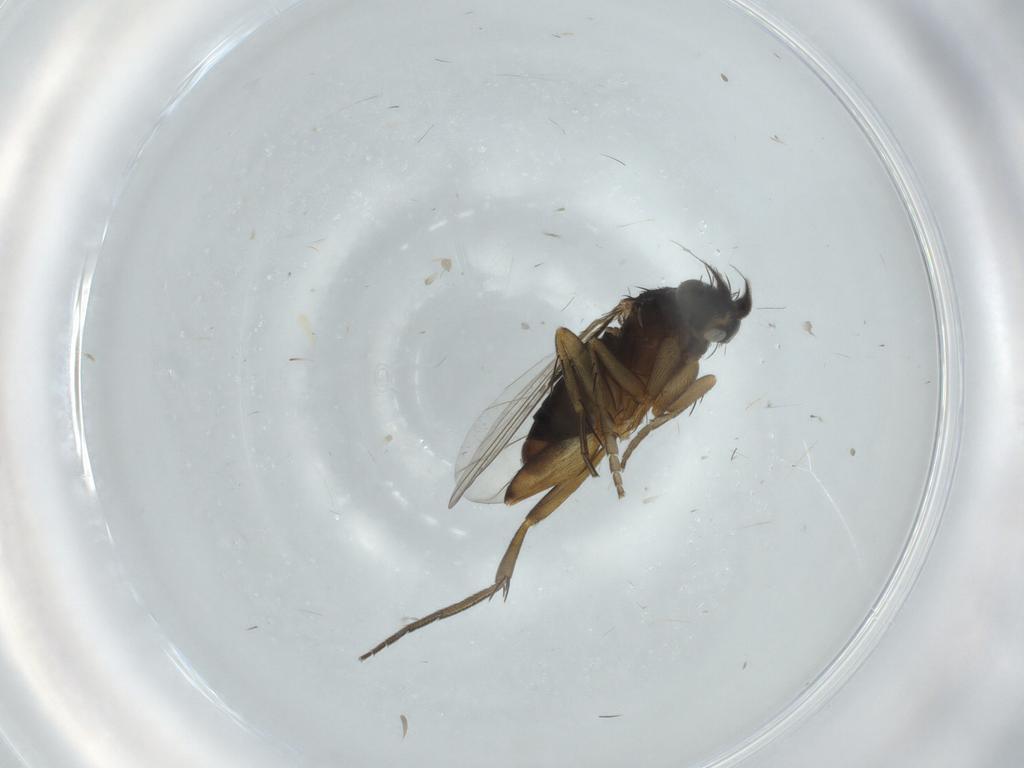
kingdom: Animalia
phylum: Arthropoda
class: Insecta
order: Diptera
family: Phoridae
